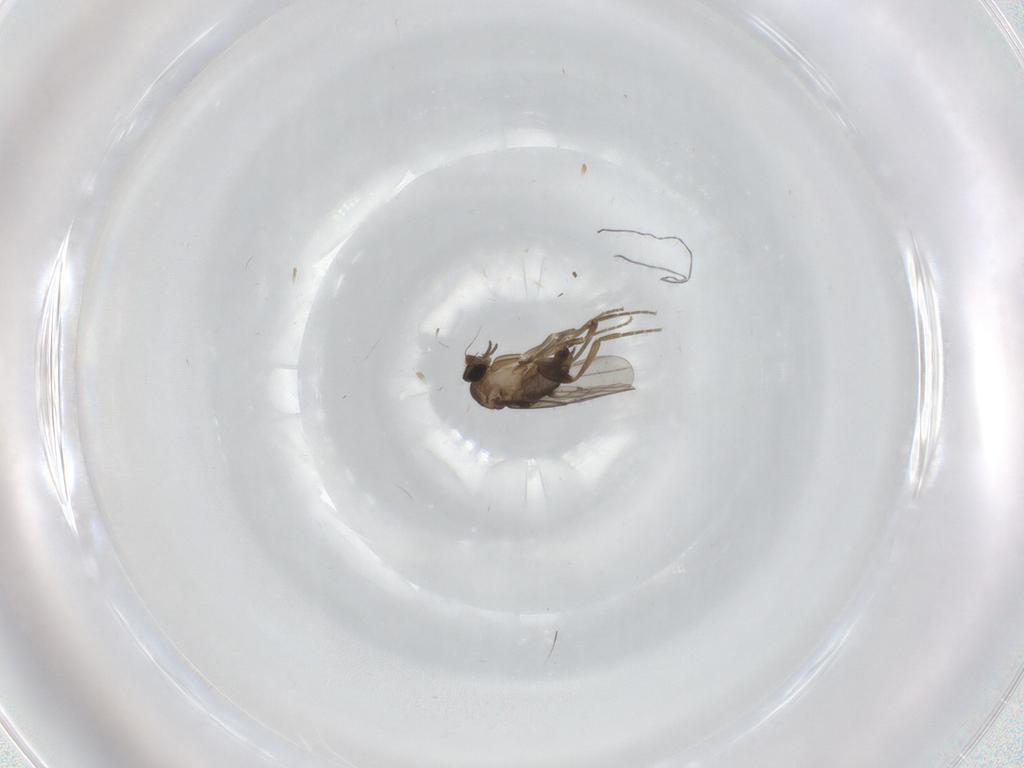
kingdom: Animalia
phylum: Arthropoda
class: Insecta
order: Diptera
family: Limoniidae
